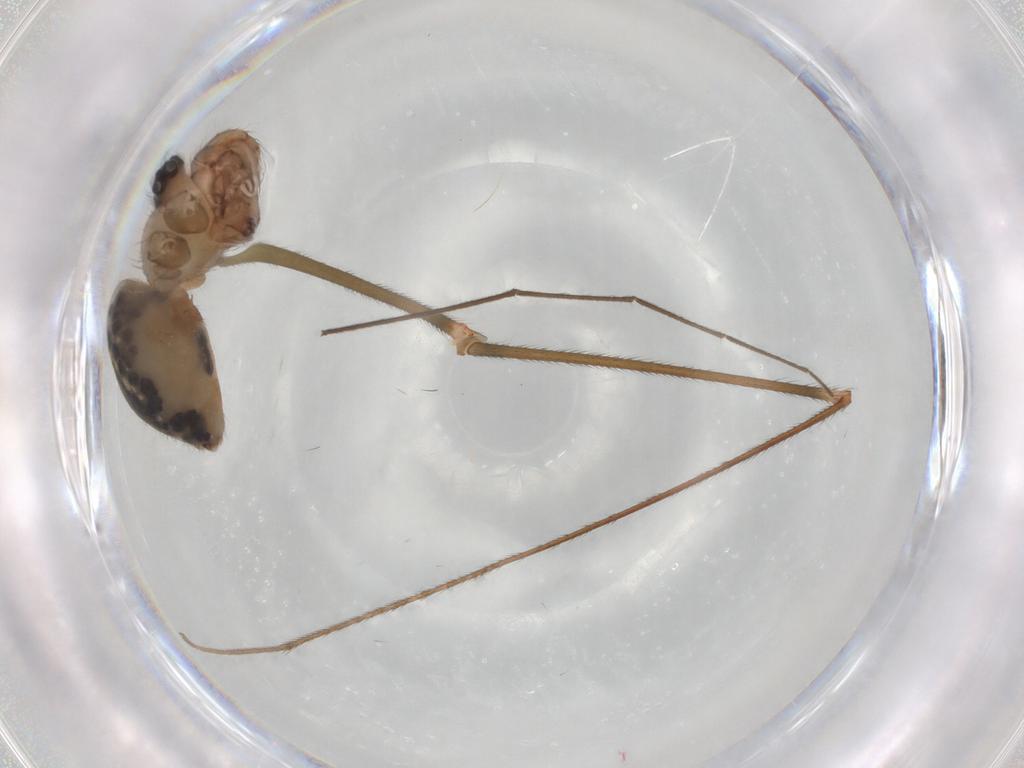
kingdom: Animalia
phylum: Arthropoda
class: Arachnida
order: Araneae
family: Pholcidae
